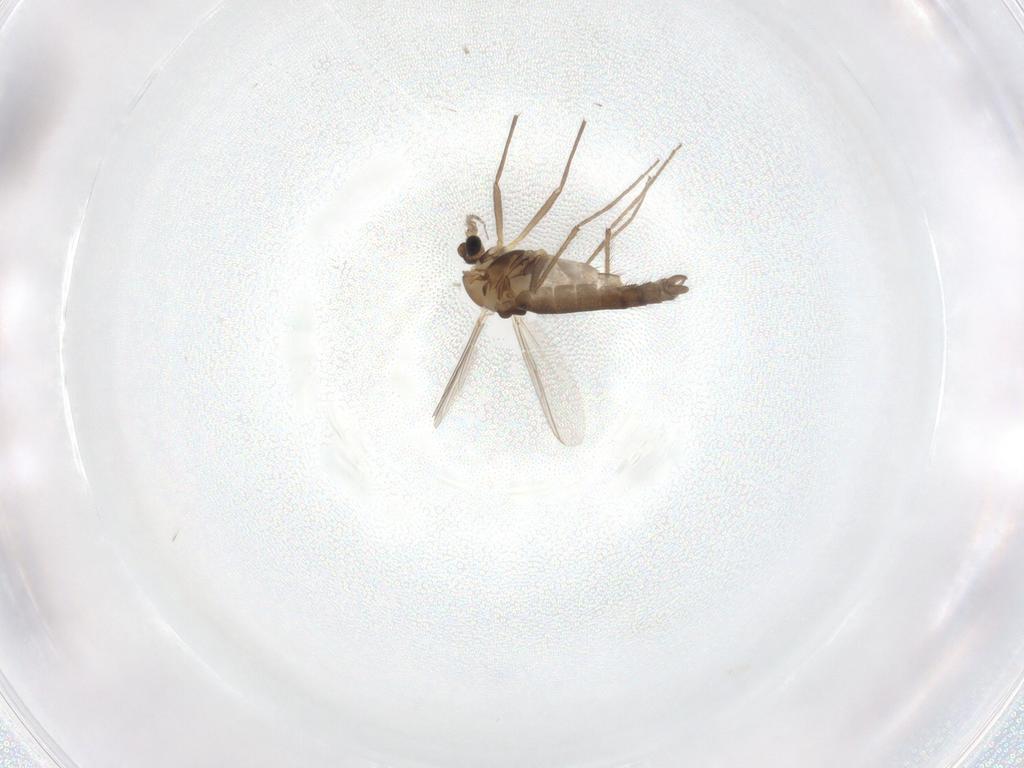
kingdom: Animalia
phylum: Arthropoda
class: Insecta
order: Diptera
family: Chironomidae
